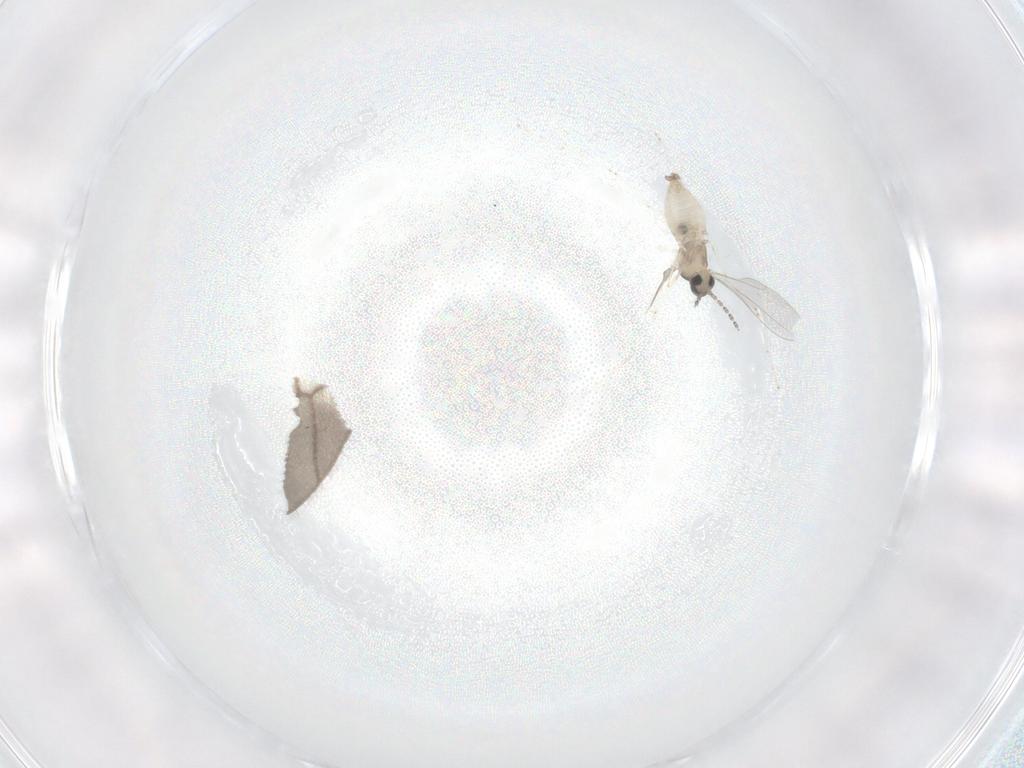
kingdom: Animalia
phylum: Arthropoda
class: Insecta
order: Diptera
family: Cecidomyiidae
